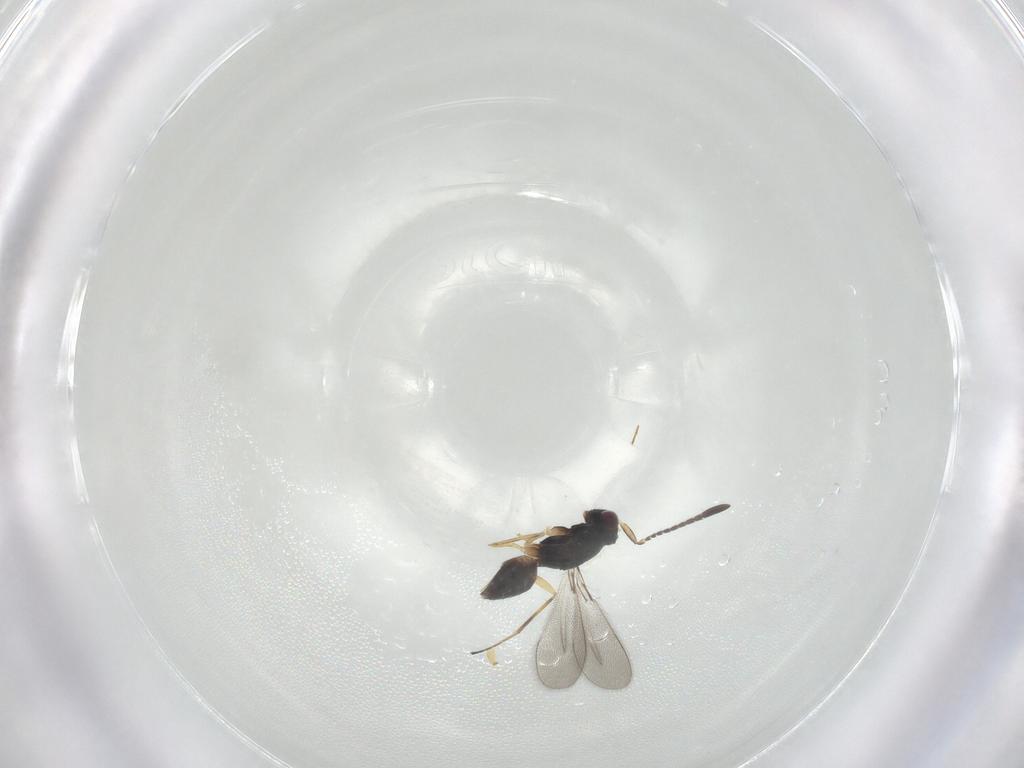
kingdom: Animalia
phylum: Arthropoda
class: Insecta
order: Hymenoptera
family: Mymaridae
